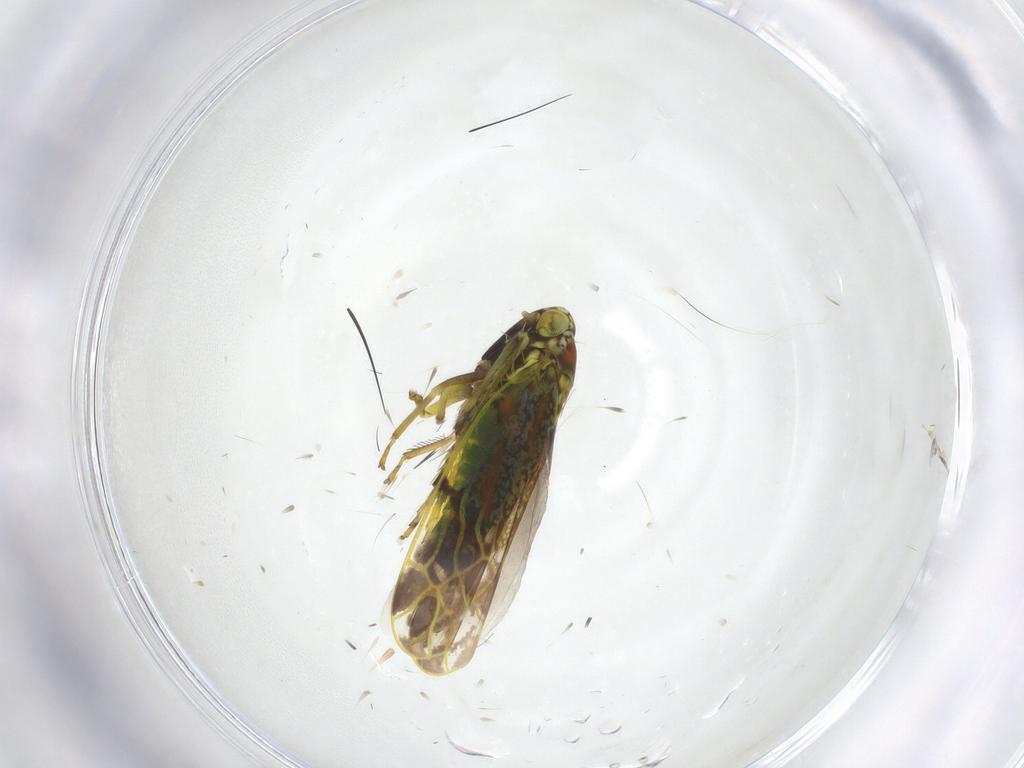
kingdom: Animalia
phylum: Arthropoda
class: Insecta
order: Hemiptera
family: Cicadellidae
